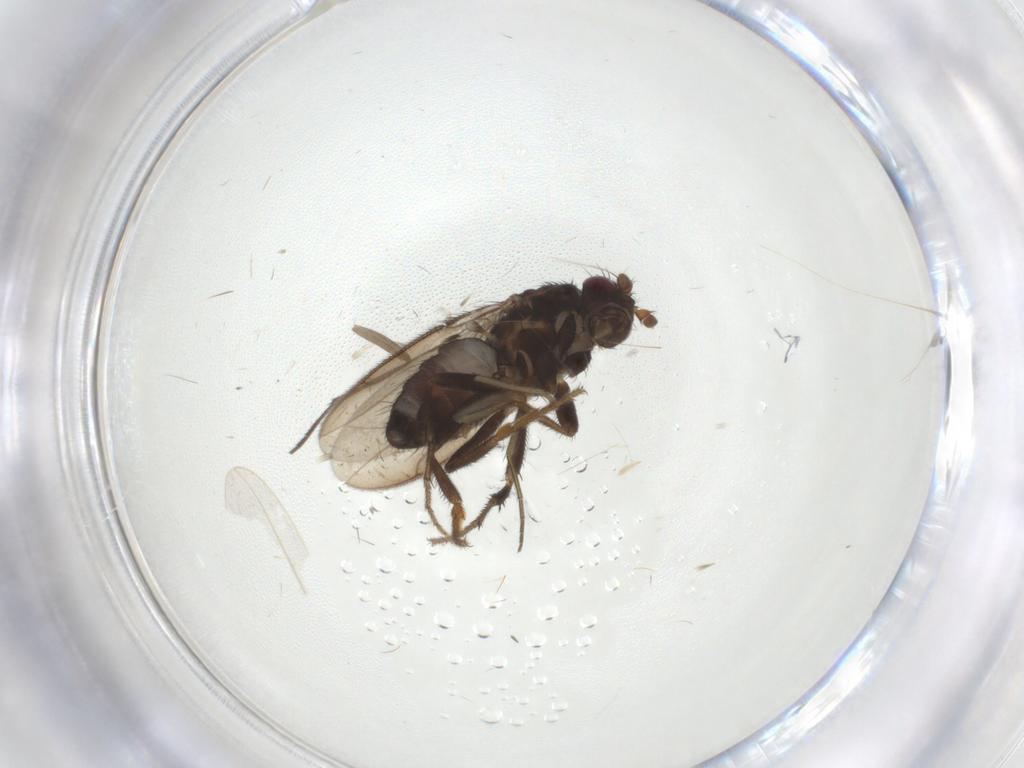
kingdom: Animalia
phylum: Arthropoda
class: Insecta
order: Diptera
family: Sphaeroceridae
